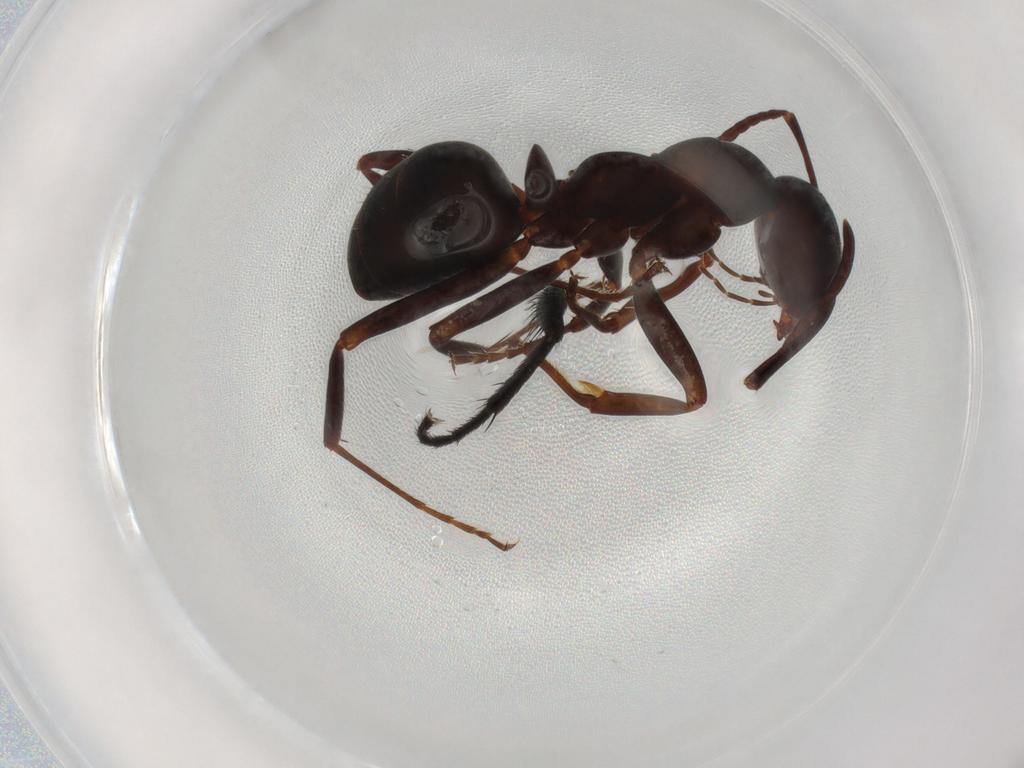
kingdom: Animalia
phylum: Arthropoda
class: Insecta
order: Hymenoptera
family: Formicidae
